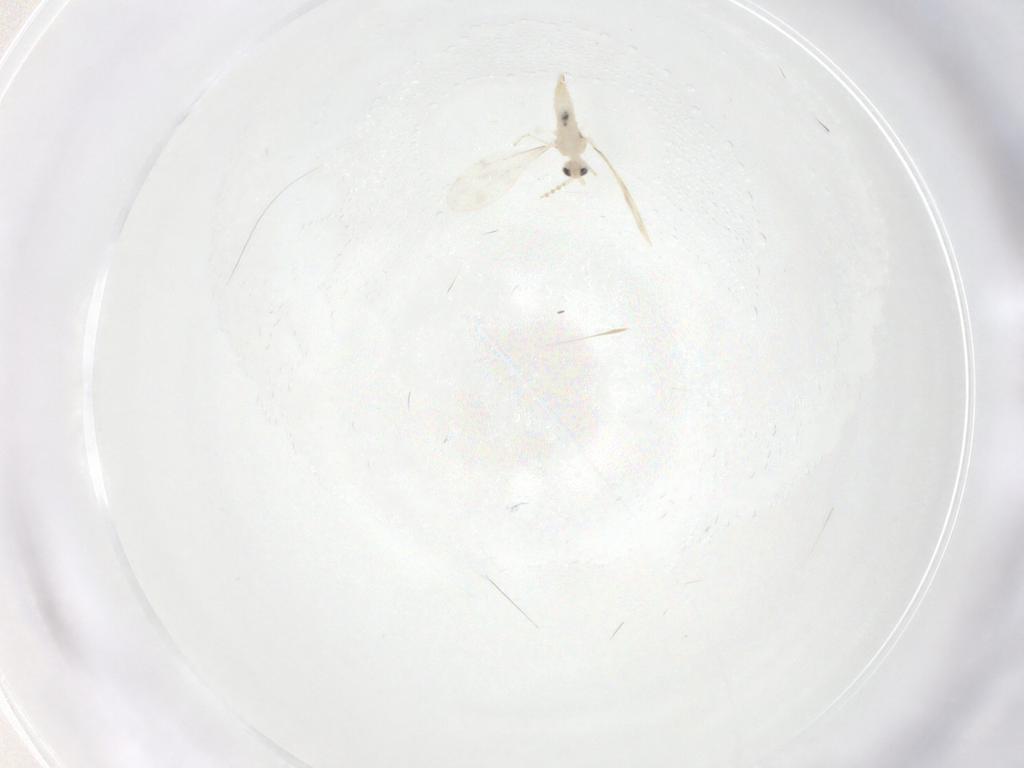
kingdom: Animalia
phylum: Arthropoda
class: Insecta
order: Diptera
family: Cecidomyiidae
